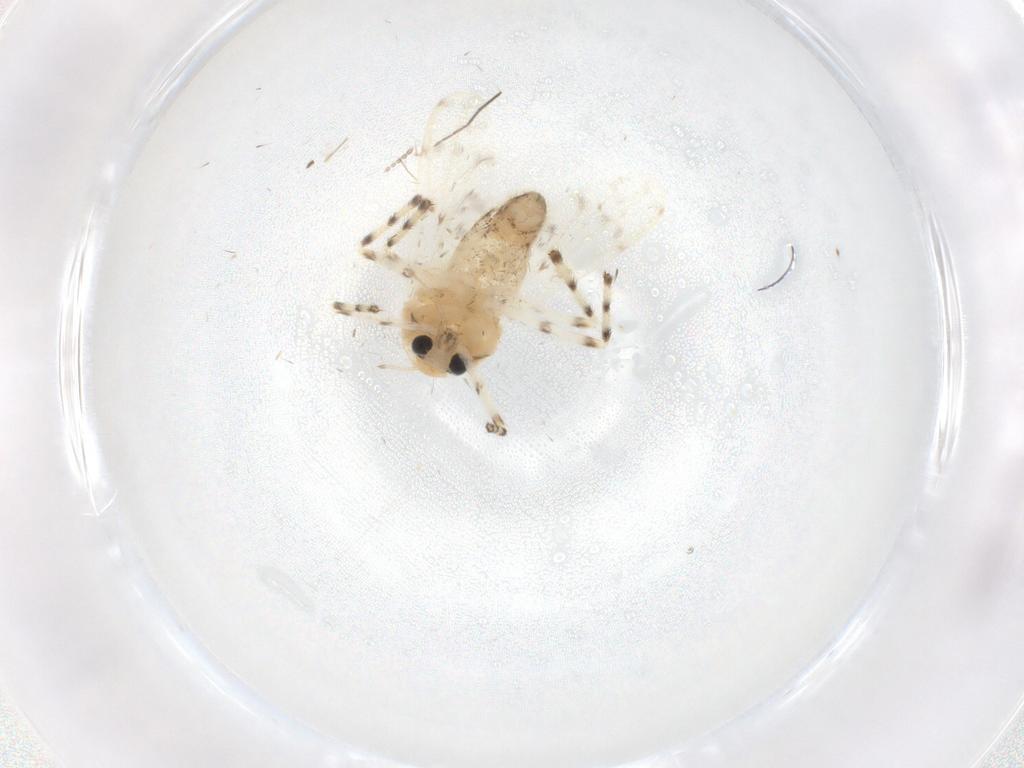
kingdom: Animalia
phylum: Arthropoda
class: Insecta
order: Diptera
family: Chironomidae
